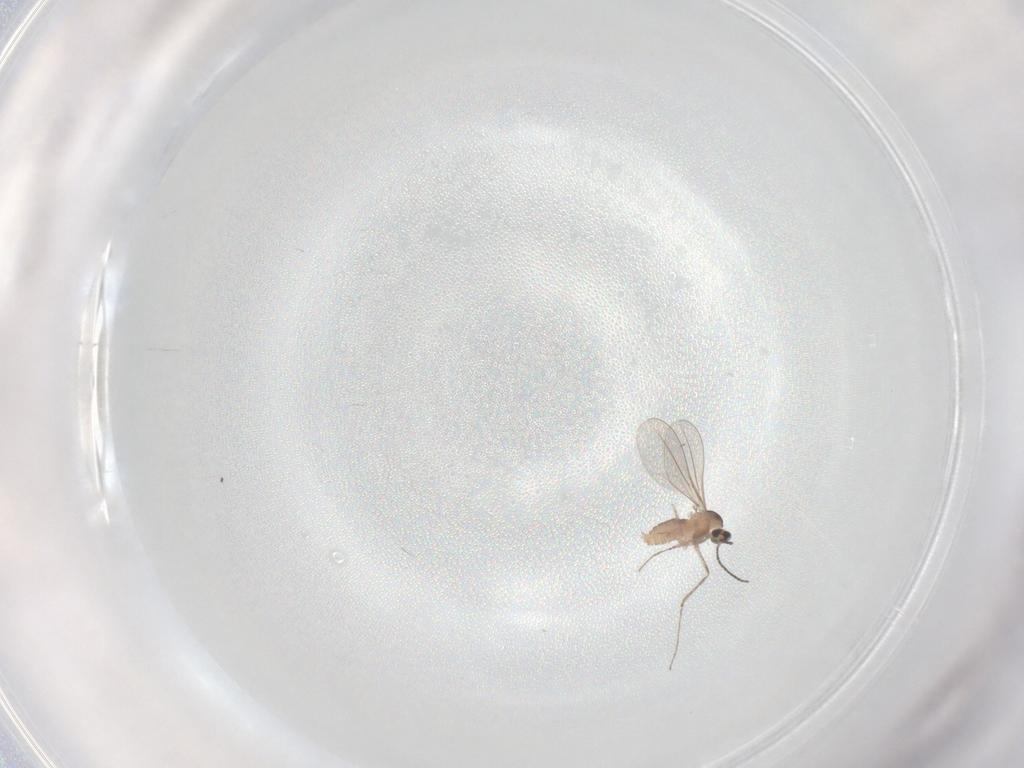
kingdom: Animalia
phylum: Arthropoda
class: Insecta
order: Diptera
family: Cecidomyiidae
